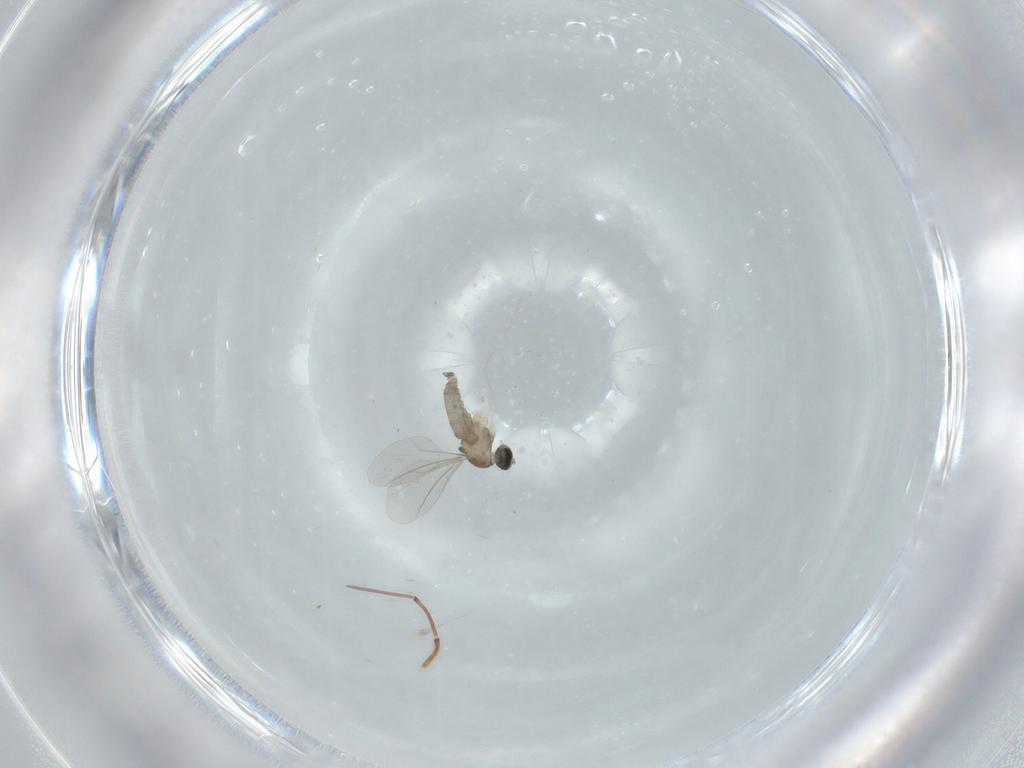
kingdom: Animalia
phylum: Arthropoda
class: Insecta
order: Diptera
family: Cecidomyiidae
